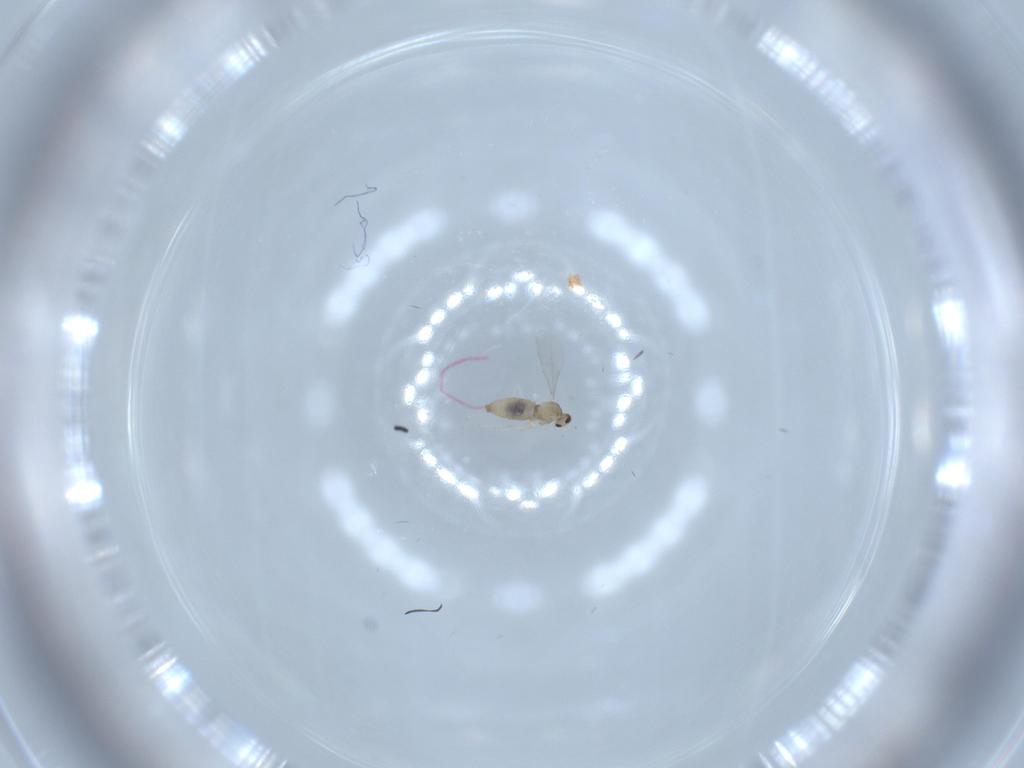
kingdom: Animalia
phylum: Arthropoda
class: Insecta
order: Diptera
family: Cecidomyiidae
